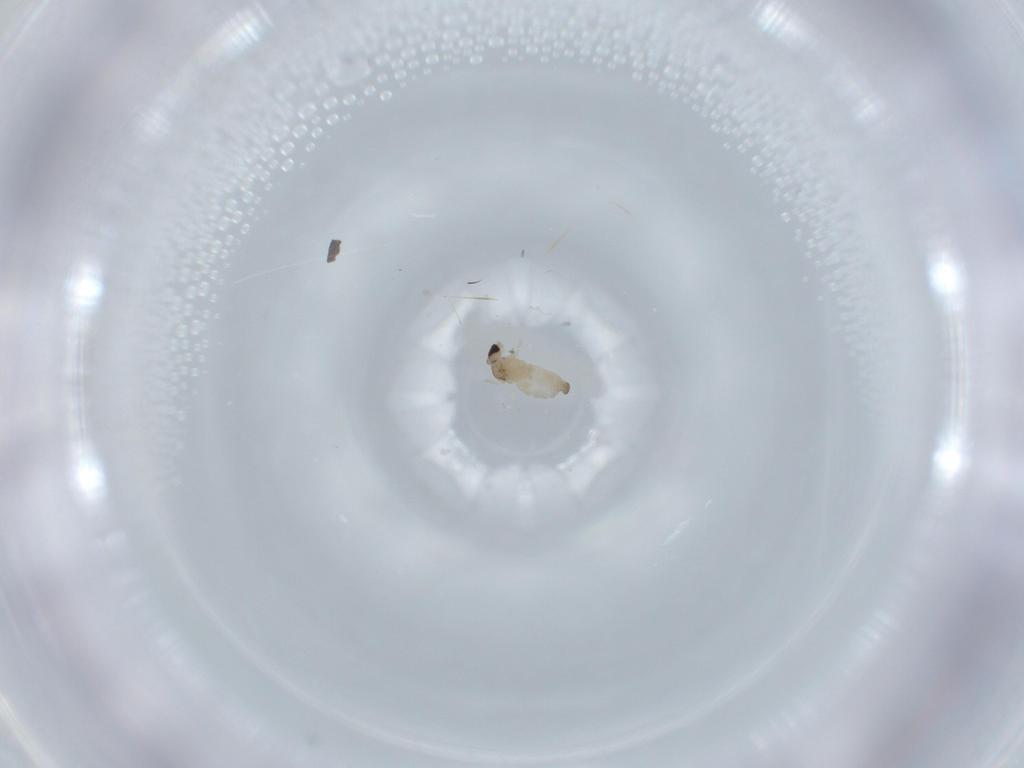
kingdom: Animalia
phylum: Arthropoda
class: Insecta
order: Diptera
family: Cecidomyiidae
